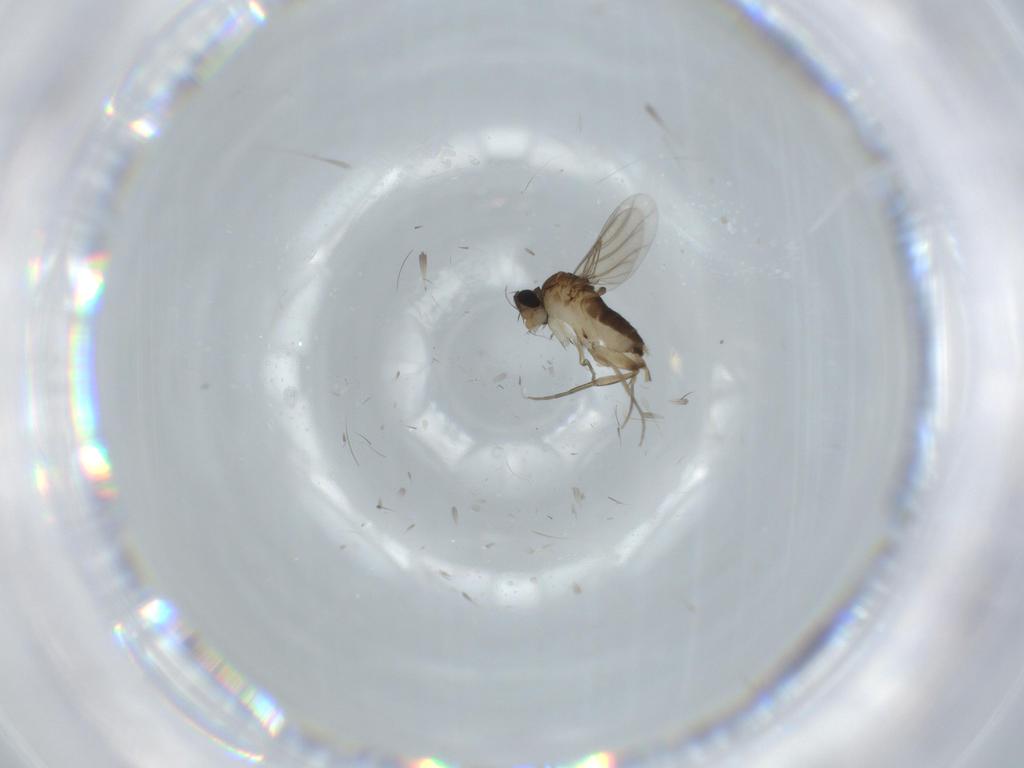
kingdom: Animalia
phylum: Arthropoda
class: Insecta
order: Diptera
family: Phoridae
